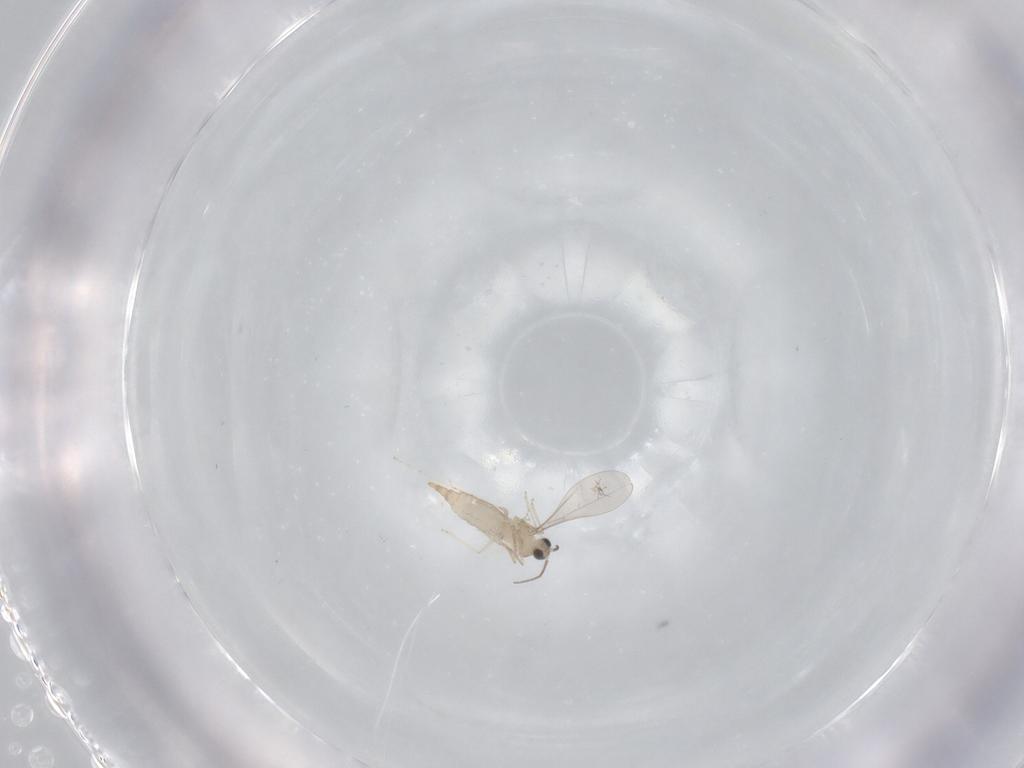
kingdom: Animalia
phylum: Arthropoda
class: Insecta
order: Diptera
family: Cecidomyiidae
